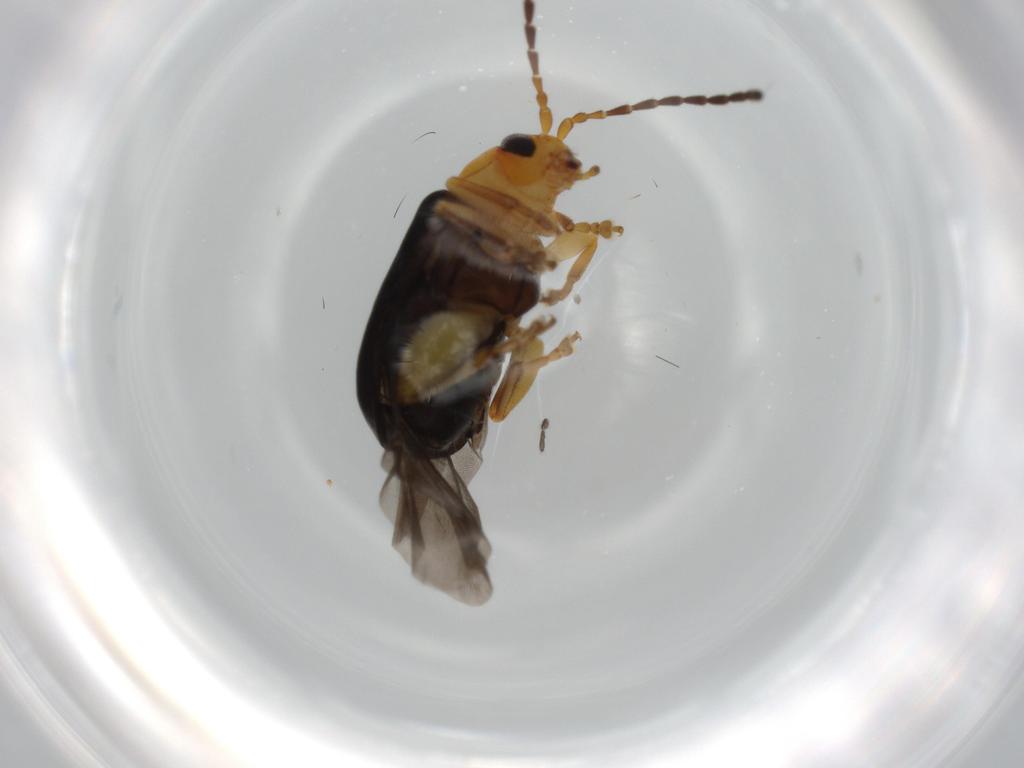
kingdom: Animalia
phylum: Arthropoda
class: Insecta
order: Coleoptera
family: Chrysomelidae
